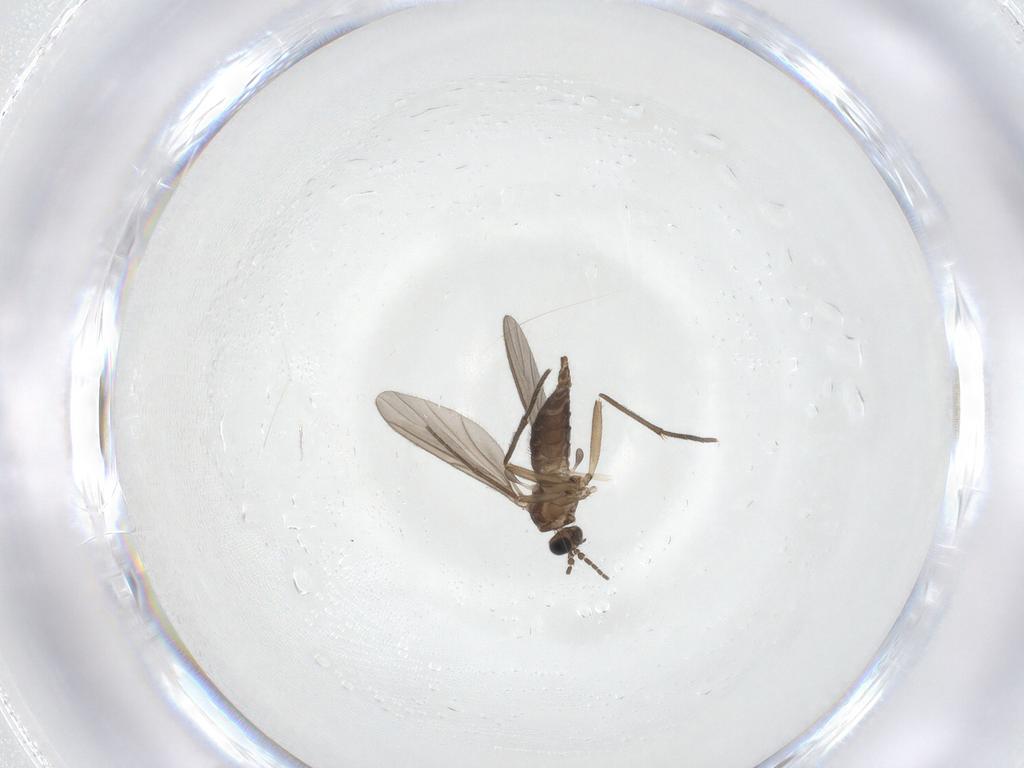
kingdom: Animalia
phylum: Arthropoda
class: Insecta
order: Diptera
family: Sciaridae
